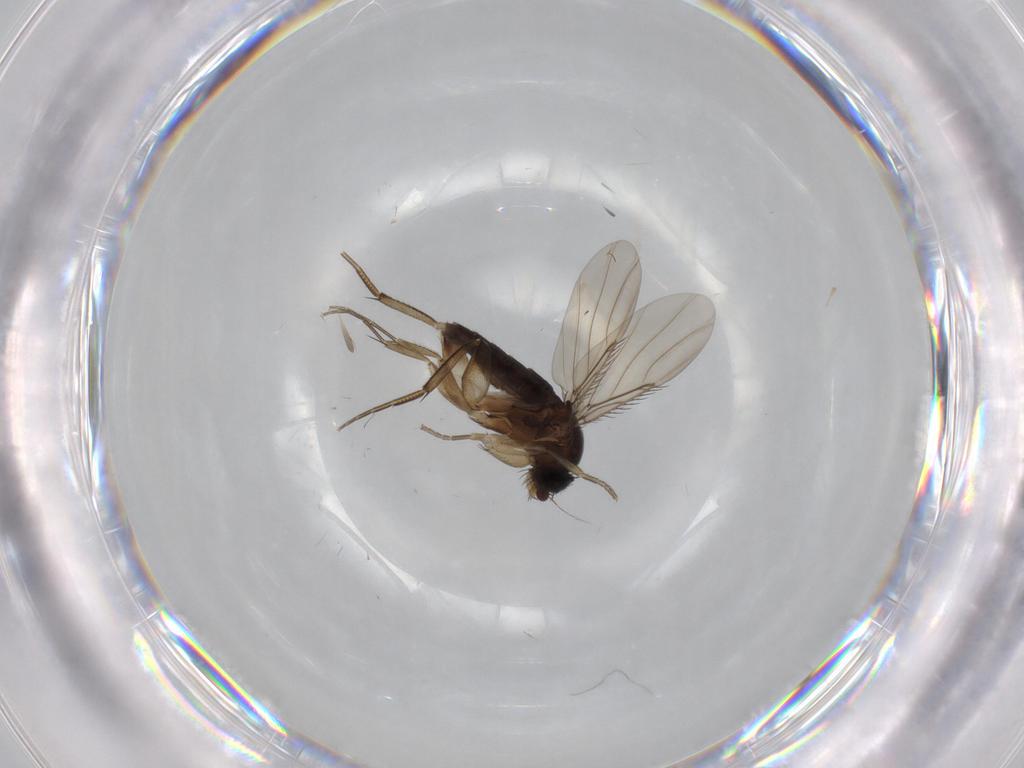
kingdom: Animalia
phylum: Arthropoda
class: Insecta
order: Diptera
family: Phoridae
